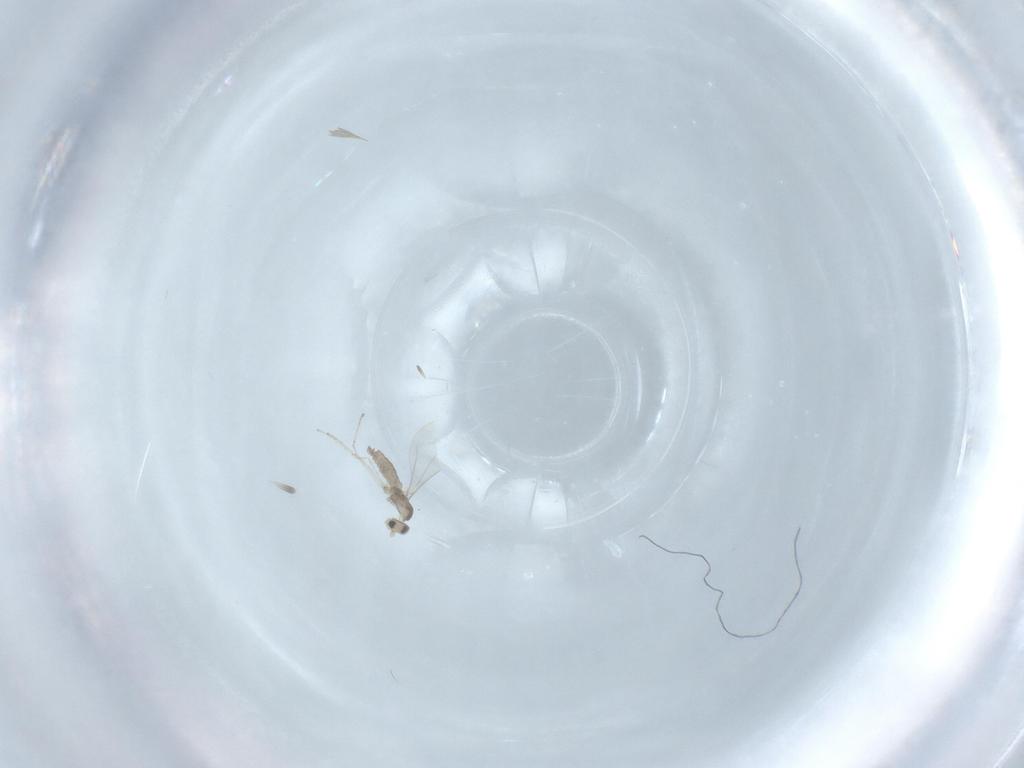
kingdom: Animalia
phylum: Arthropoda
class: Insecta
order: Diptera
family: Cecidomyiidae
